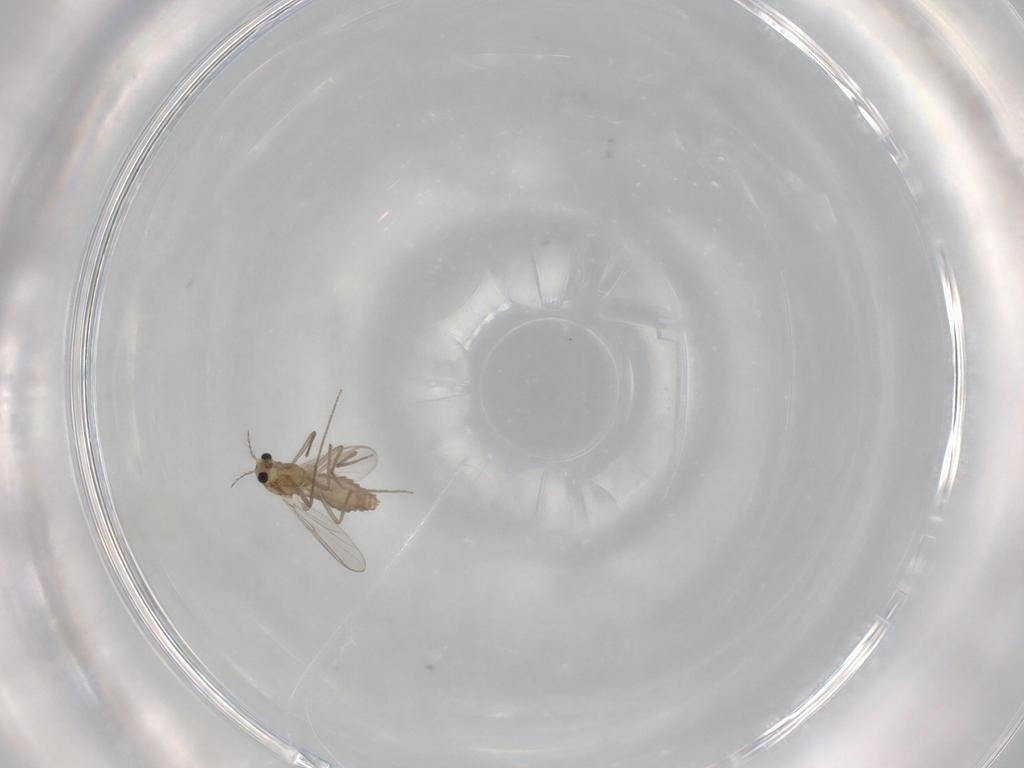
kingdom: Animalia
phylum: Arthropoda
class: Insecta
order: Diptera
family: Chironomidae
